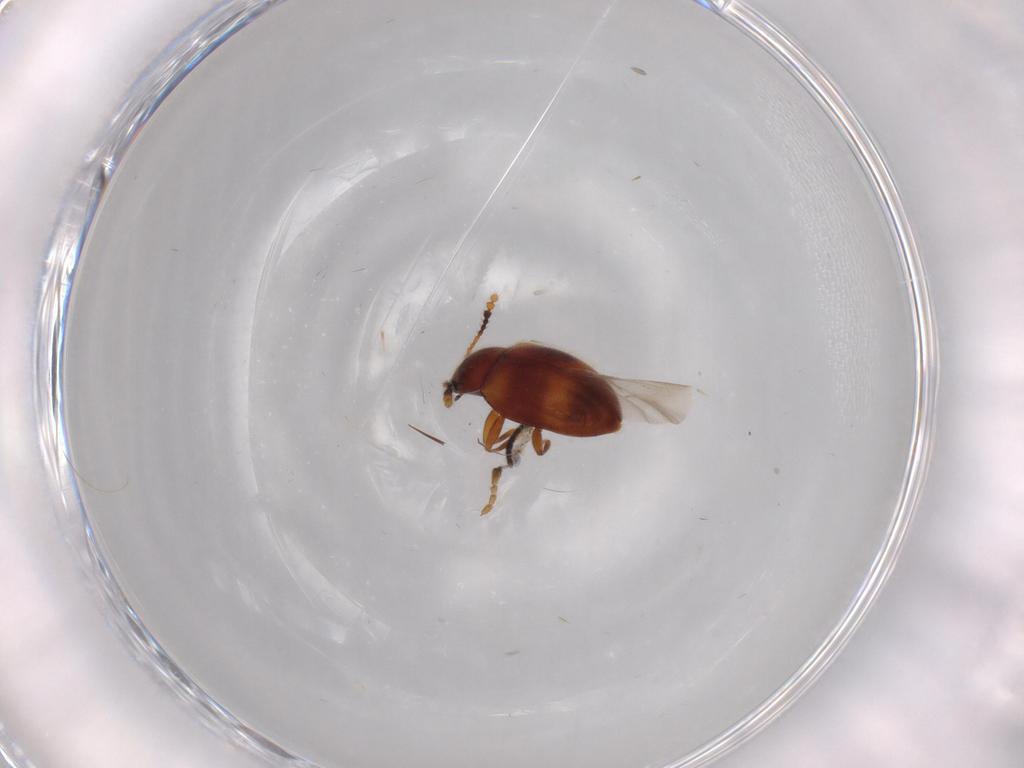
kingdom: Animalia
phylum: Arthropoda
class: Insecta
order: Coleoptera
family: Erotylidae
